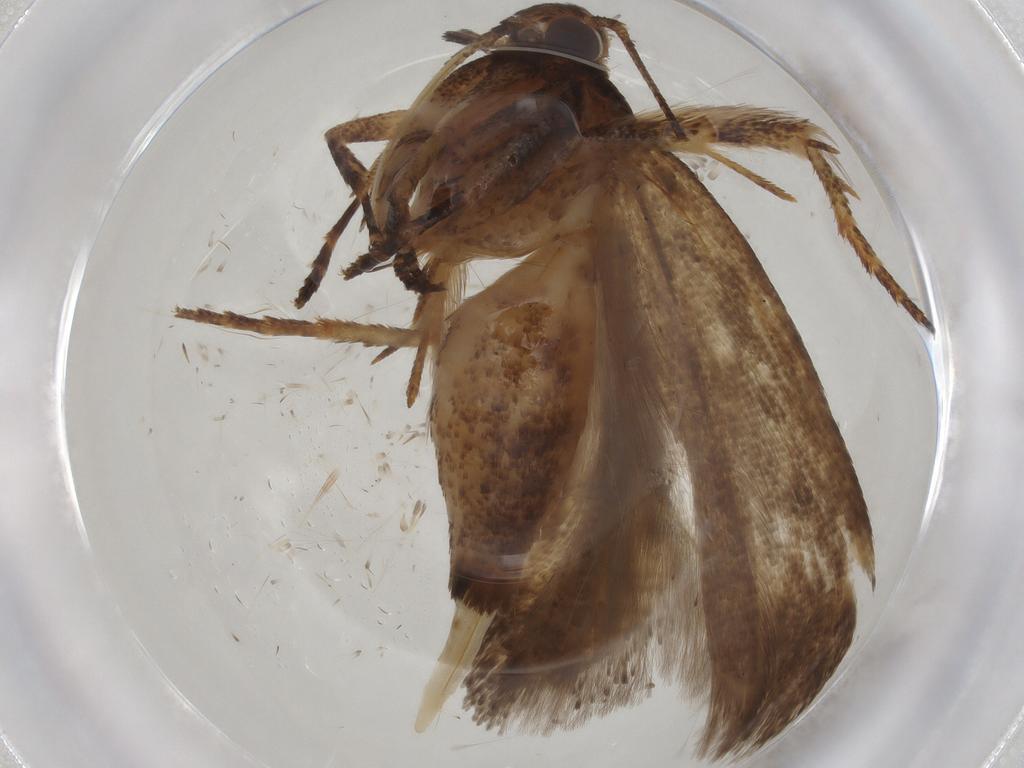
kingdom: Animalia
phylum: Arthropoda
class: Insecta
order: Lepidoptera
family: Gelechiidae
